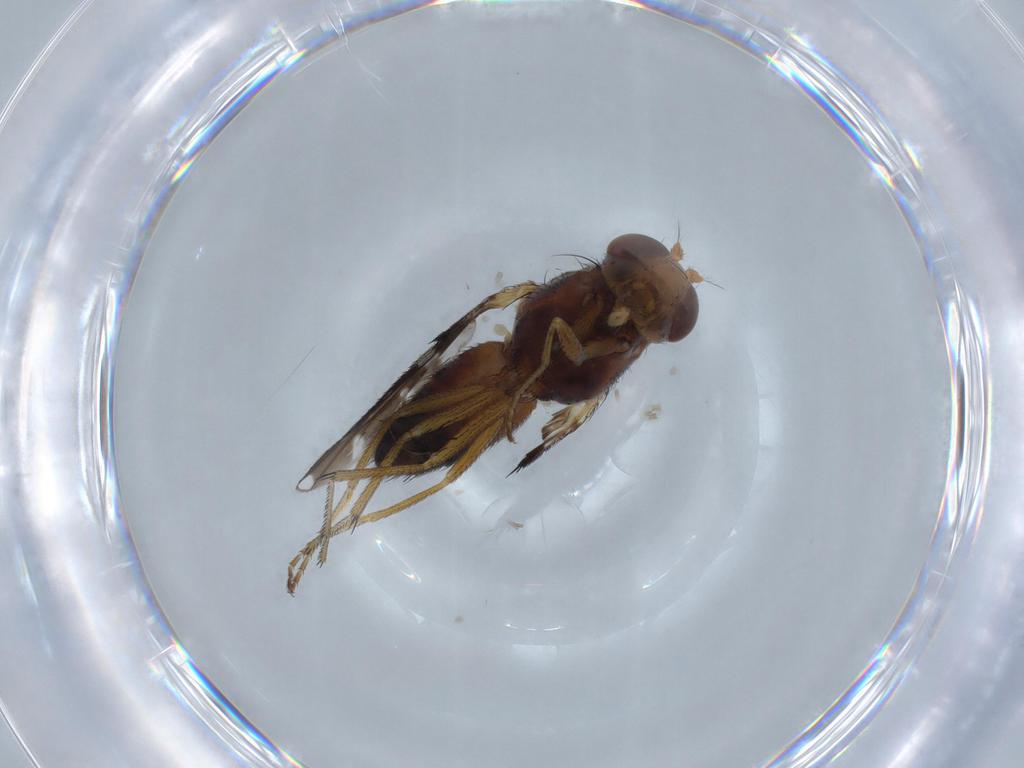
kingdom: Animalia
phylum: Arthropoda
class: Insecta
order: Diptera
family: Ephydridae
